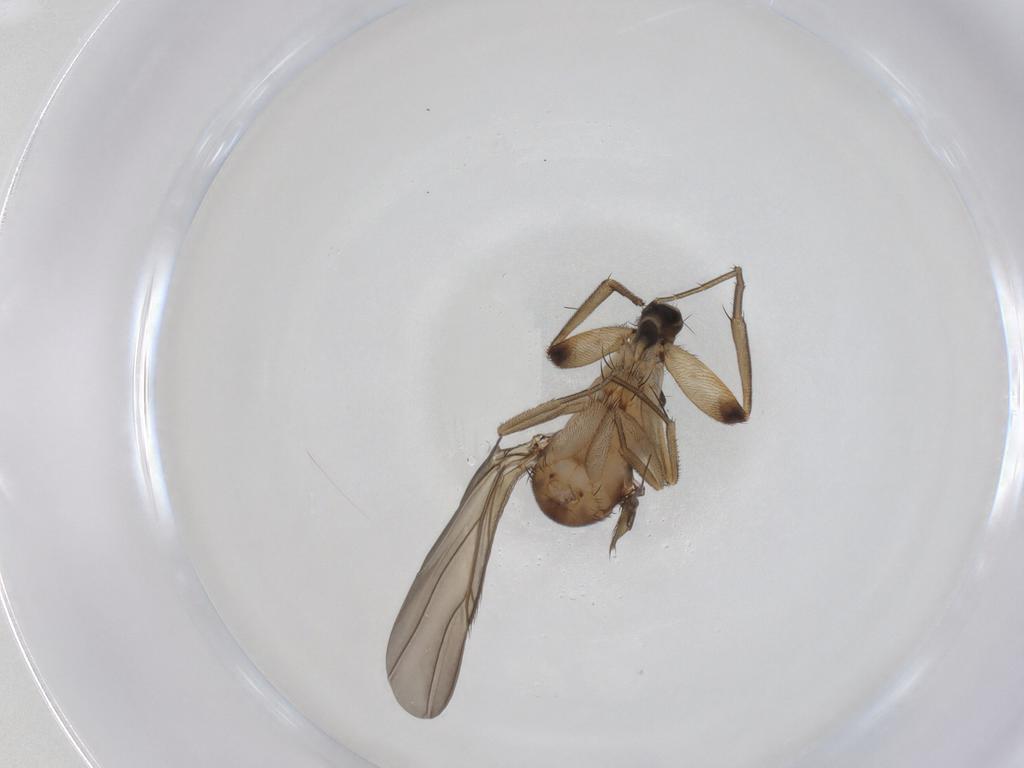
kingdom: Animalia
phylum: Arthropoda
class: Insecta
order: Diptera
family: Phoridae
